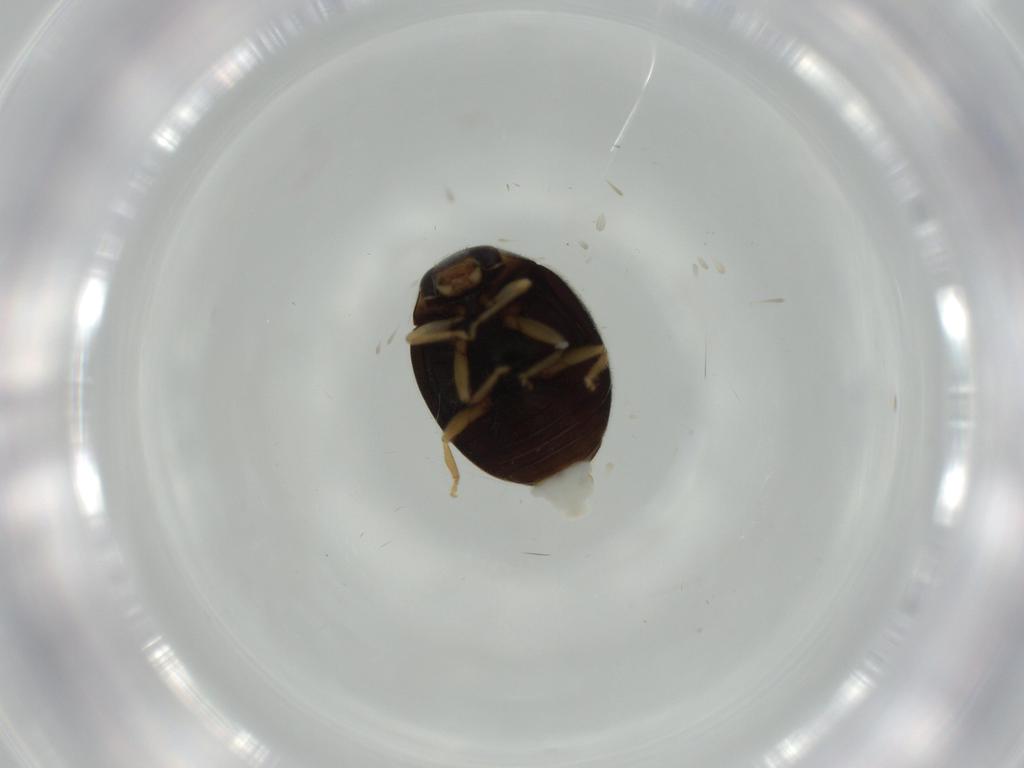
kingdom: Animalia
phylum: Arthropoda
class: Insecta
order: Coleoptera
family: Coccinellidae
